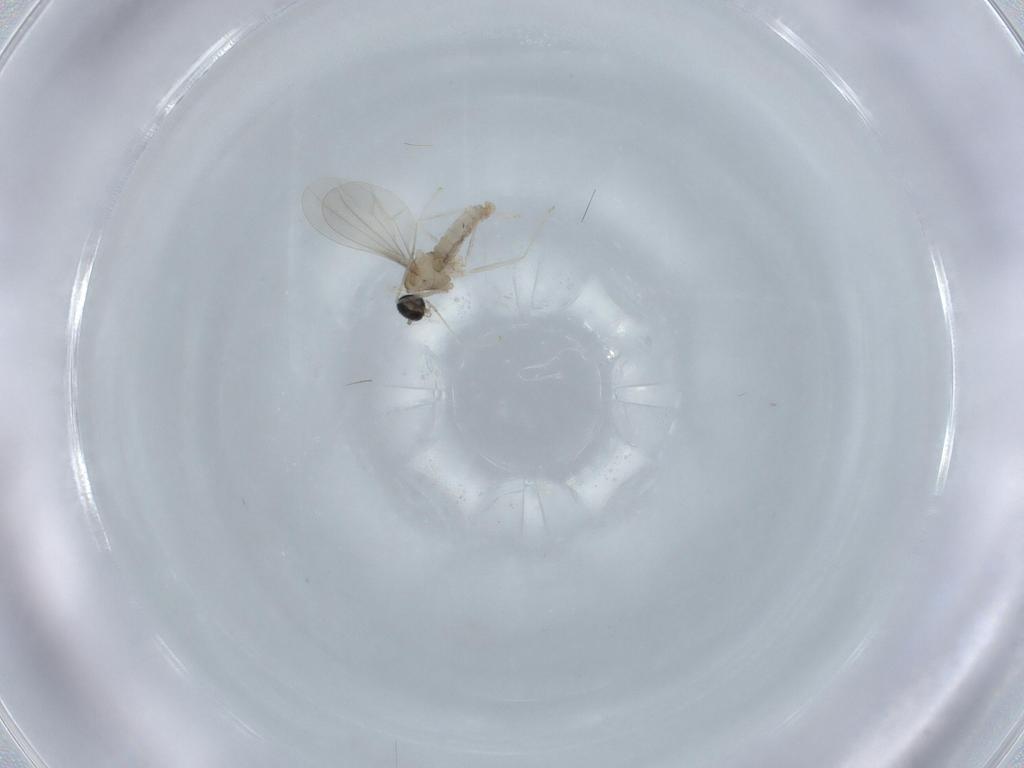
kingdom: Animalia
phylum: Arthropoda
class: Insecta
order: Diptera
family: Cecidomyiidae
